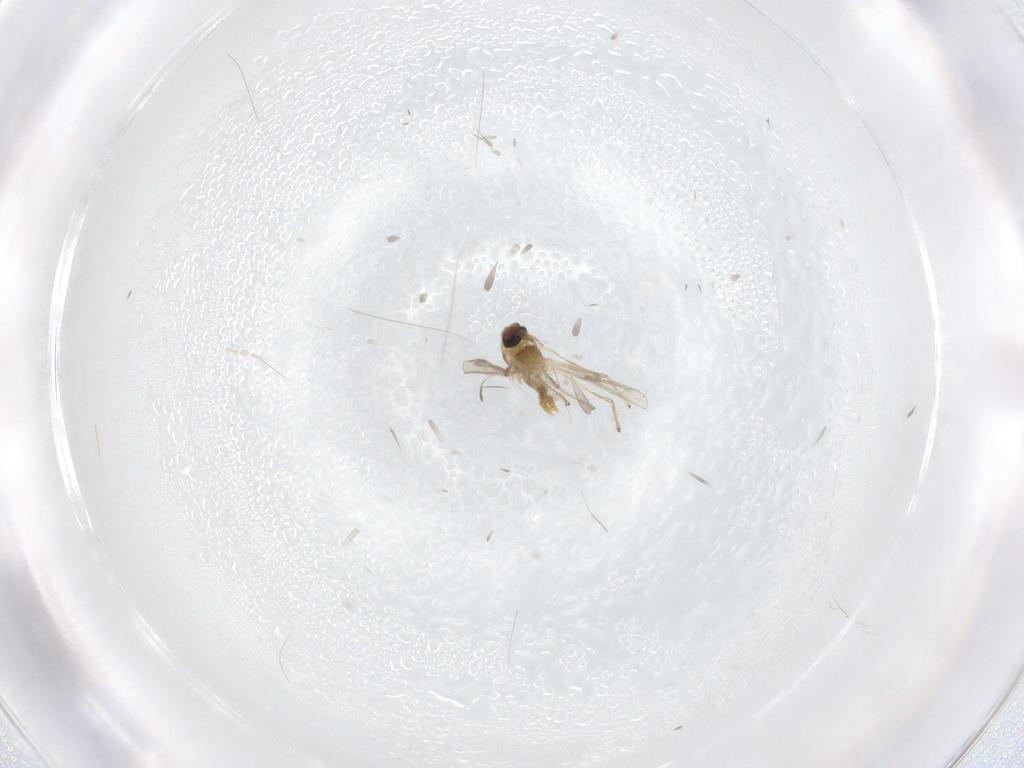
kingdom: Animalia
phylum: Arthropoda
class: Insecta
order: Diptera
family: Chironomidae
